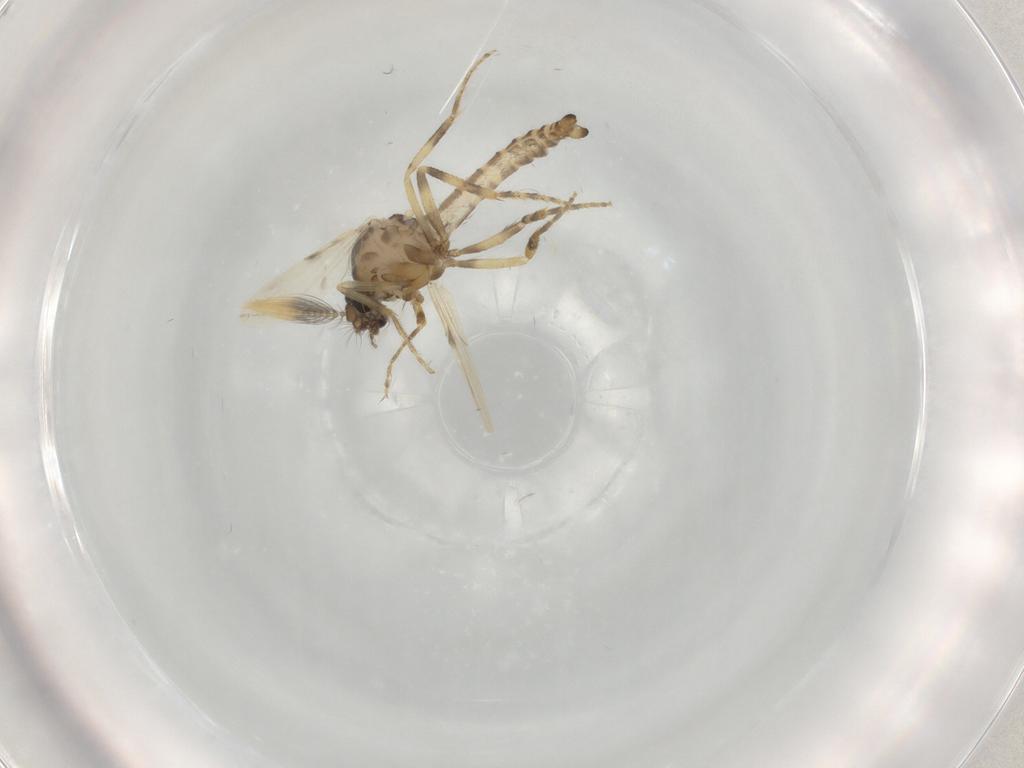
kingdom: Animalia
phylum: Arthropoda
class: Insecta
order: Diptera
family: Ceratopogonidae
